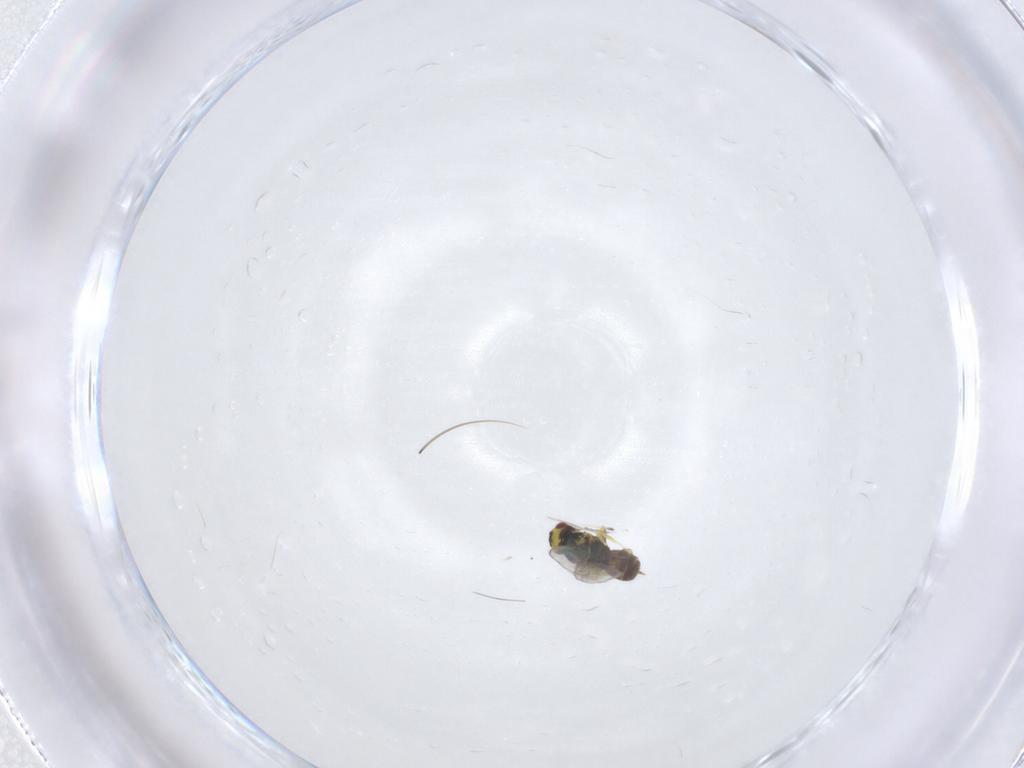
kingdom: Animalia
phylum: Arthropoda
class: Insecta
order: Hymenoptera
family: Eulophidae
